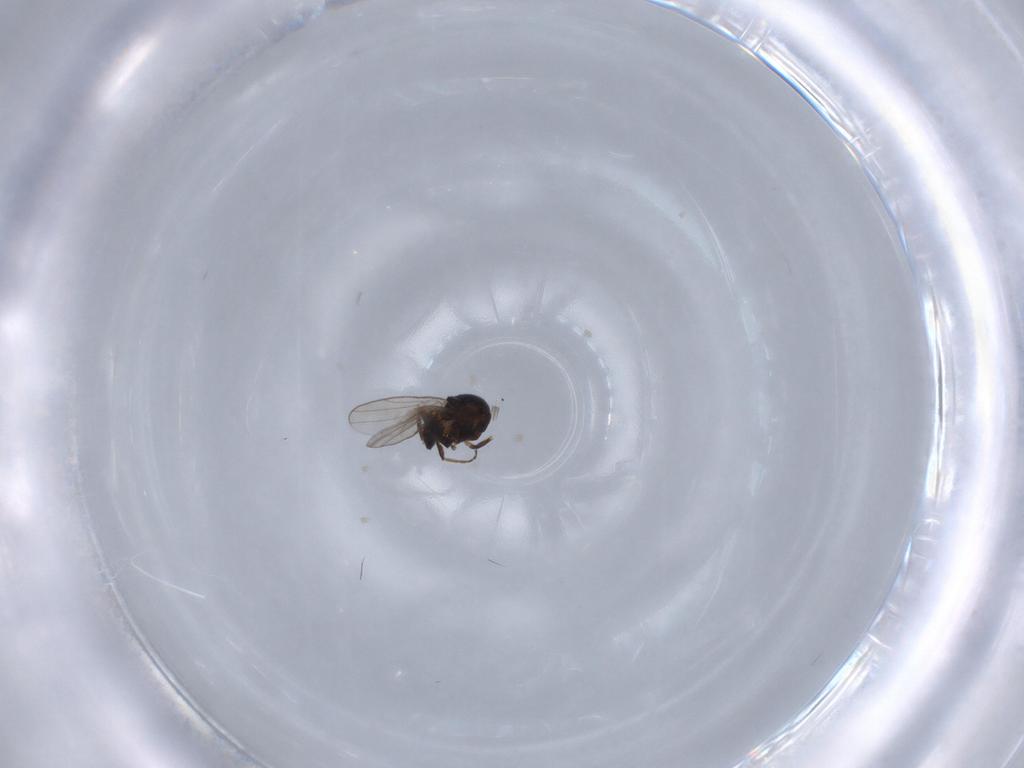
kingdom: Animalia
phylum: Arthropoda
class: Insecta
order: Diptera
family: Chloropidae
